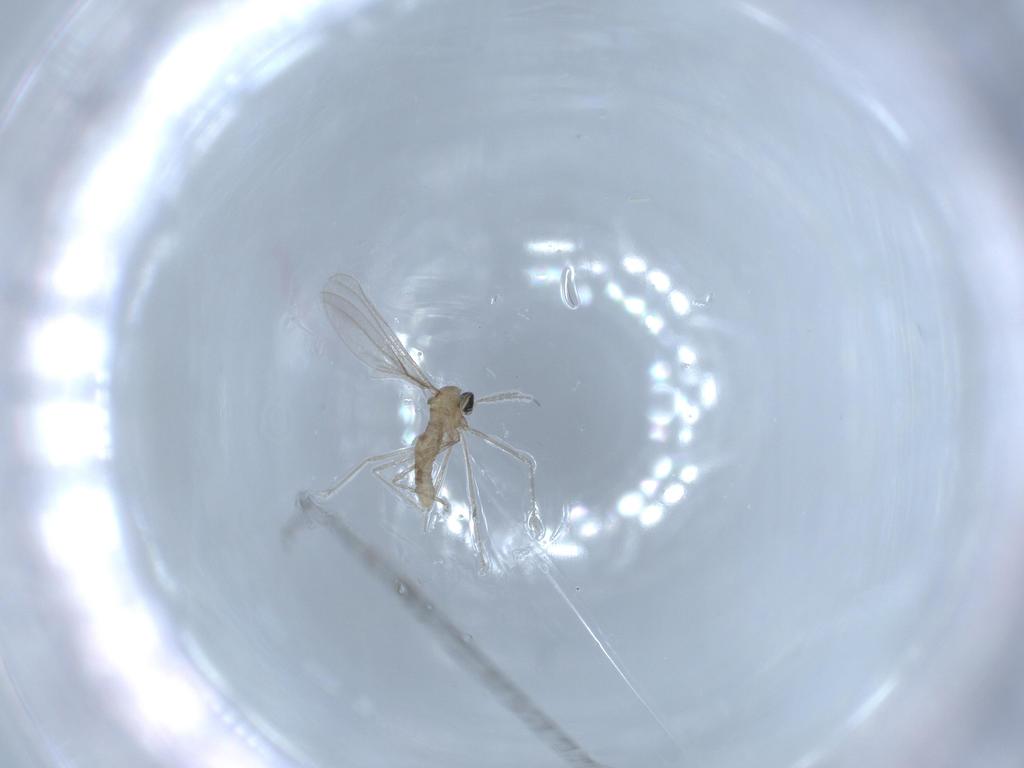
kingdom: Animalia
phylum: Arthropoda
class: Insecta
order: Diptera
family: Cecidomyiidae
